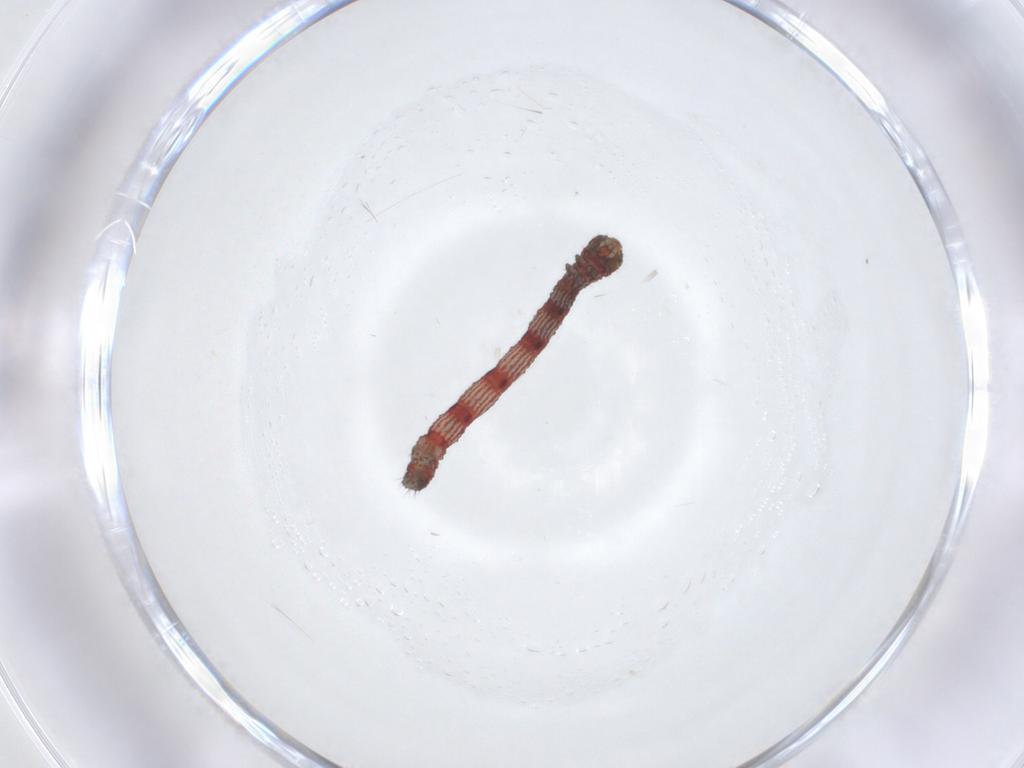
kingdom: Animalia
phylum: Arthropoda
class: Insecta
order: Lepidoptera
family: Geometridae
